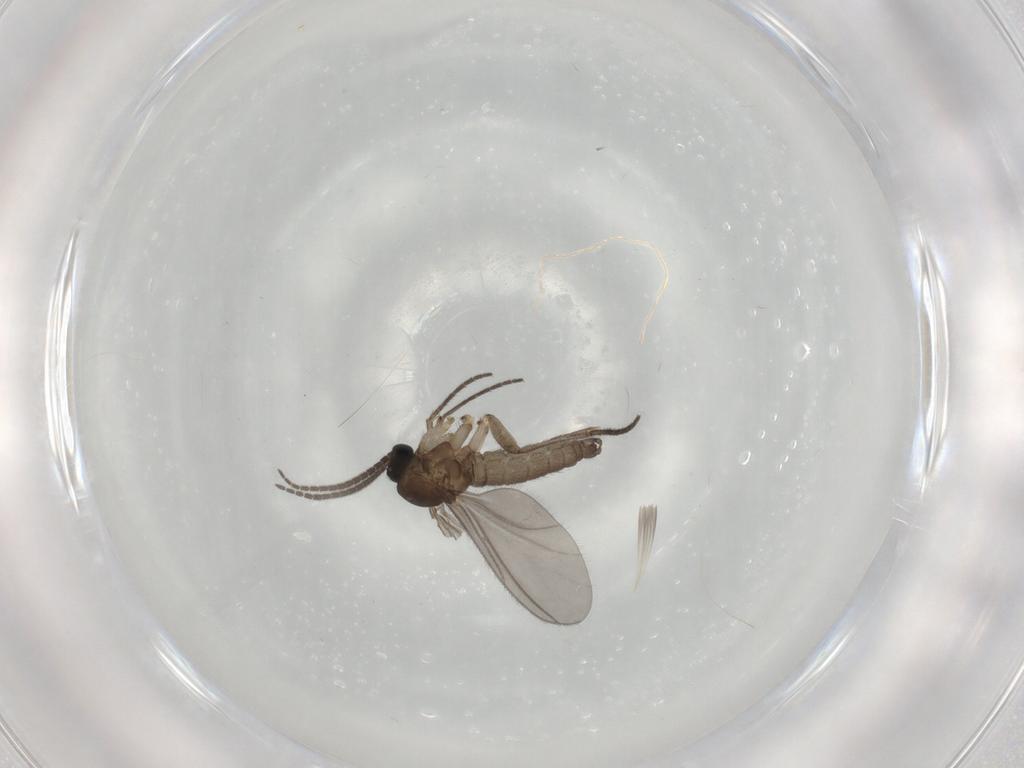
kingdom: Animalia
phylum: Arthropoda
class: Insecta
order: Diptera
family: Sciaridae
